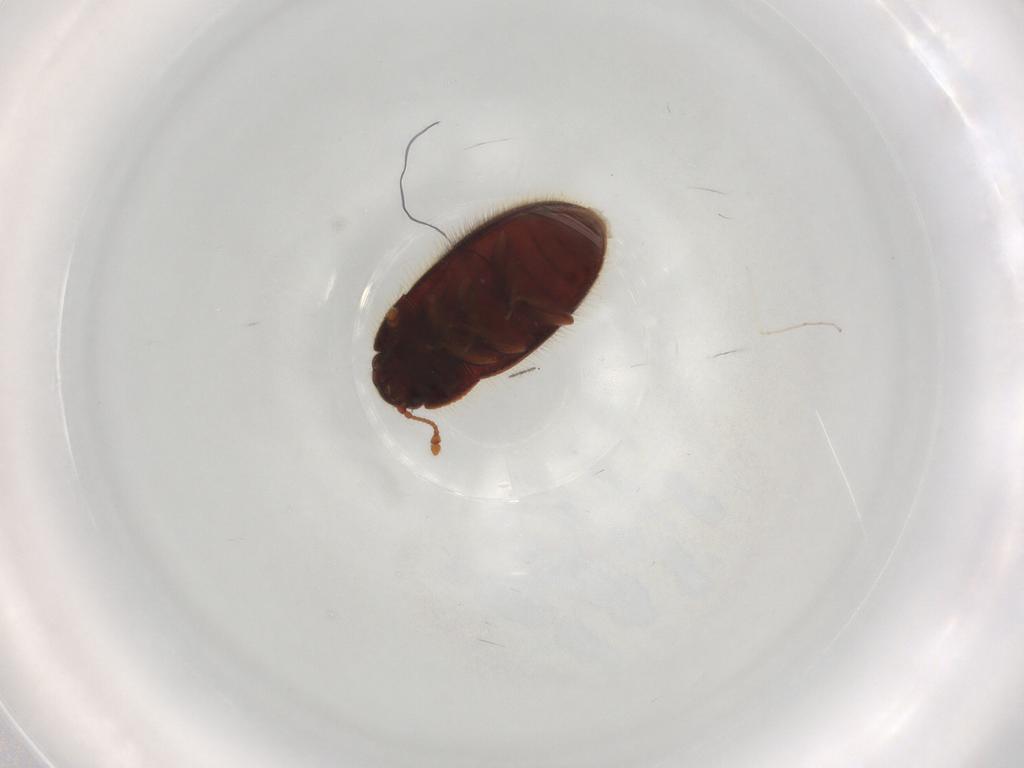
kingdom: Animalia
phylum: Arthropoda
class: Insecta
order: Coleoptera
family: Biphyllidae
